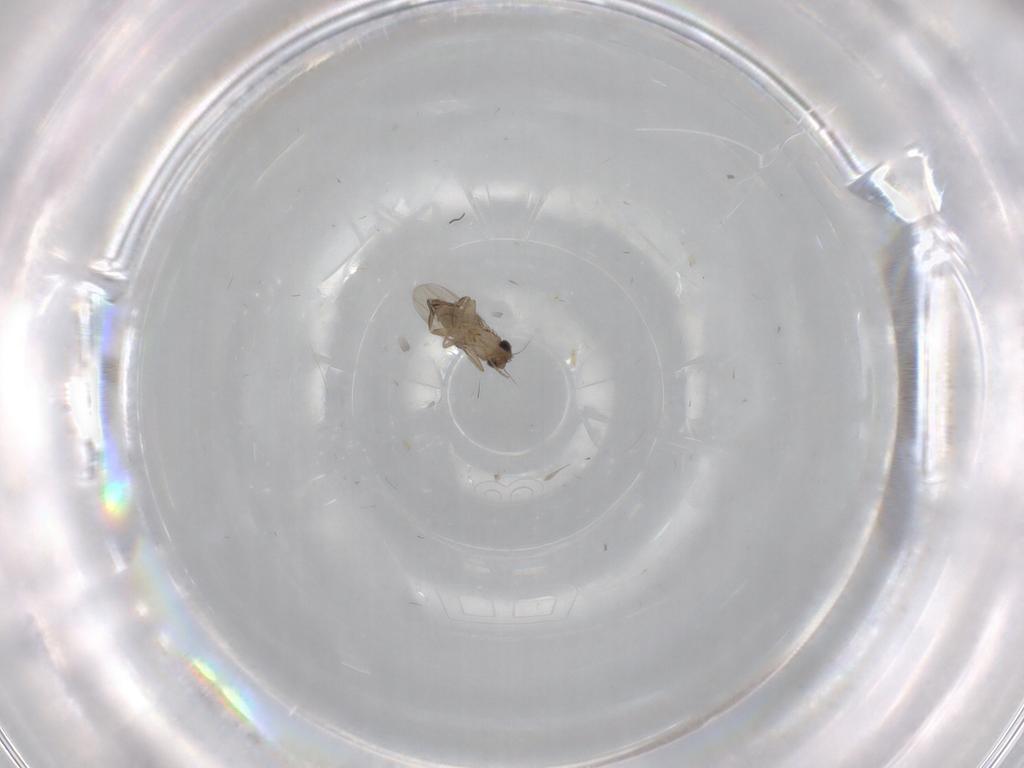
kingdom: Animalia
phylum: Arthropoda
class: Insecta
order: Diptera
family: Phoridae
